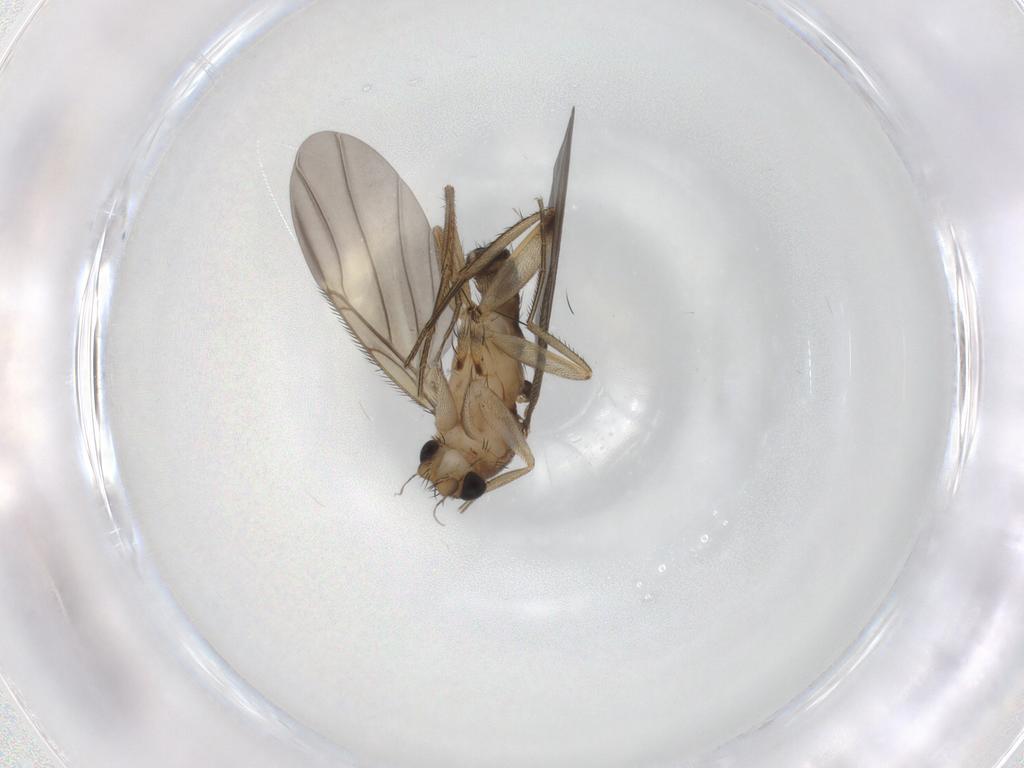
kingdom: Animalia
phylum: Arthropoda
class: Insecta
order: Diptera
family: Phoridae
